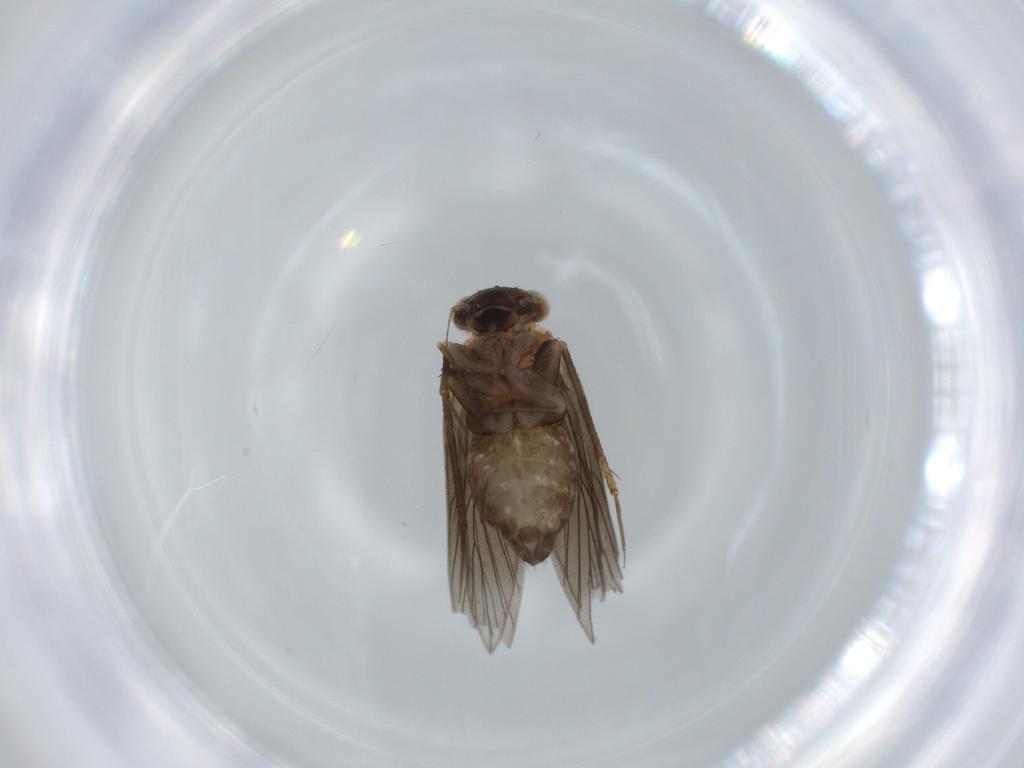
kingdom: Animalia
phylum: Arthropoda
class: Insecta
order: Psocodea
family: Lepidopsocidae
